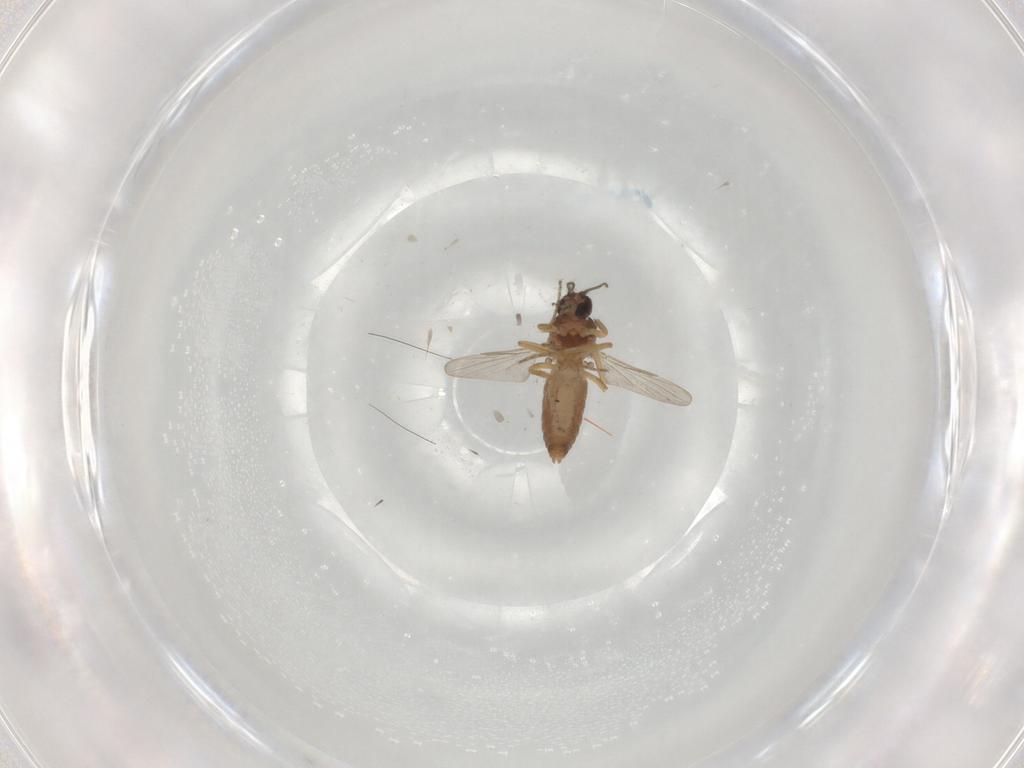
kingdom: Animalia
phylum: Arthropoda
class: Insecta
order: Diptera
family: Ceratopogonidae
